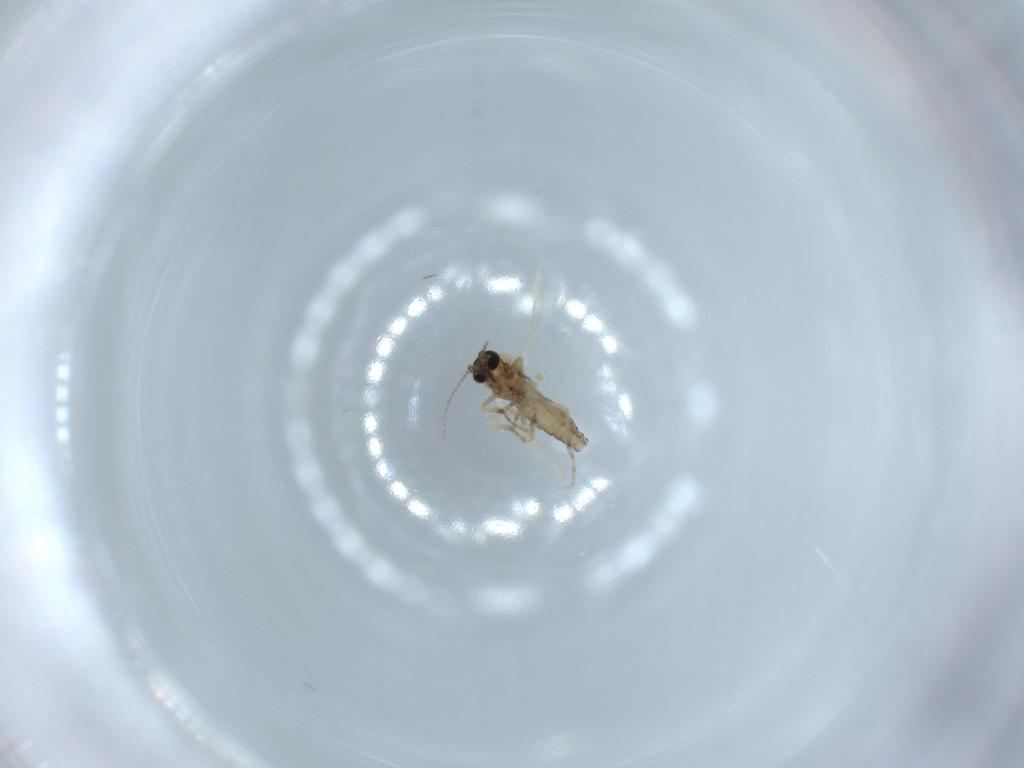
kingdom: Animalia
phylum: Arthropoda
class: Insecta
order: Diptera
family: Ceratopogonidae
